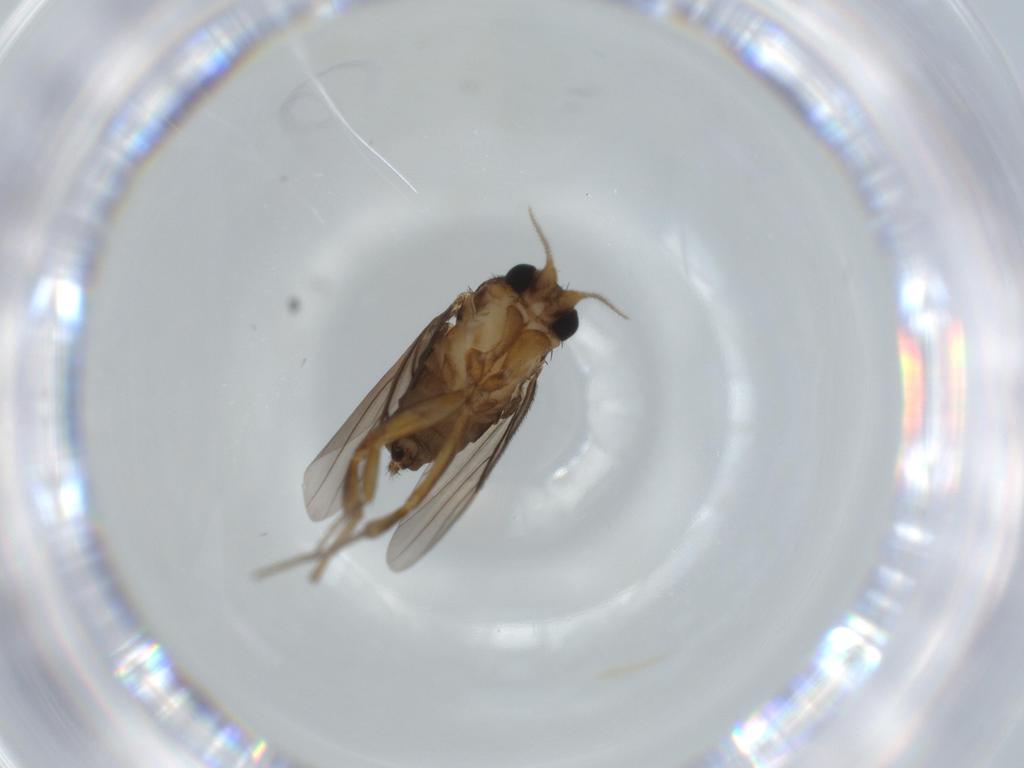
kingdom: Animalia
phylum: Arthropoda
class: Insecta
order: Diptera
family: Phoridae
